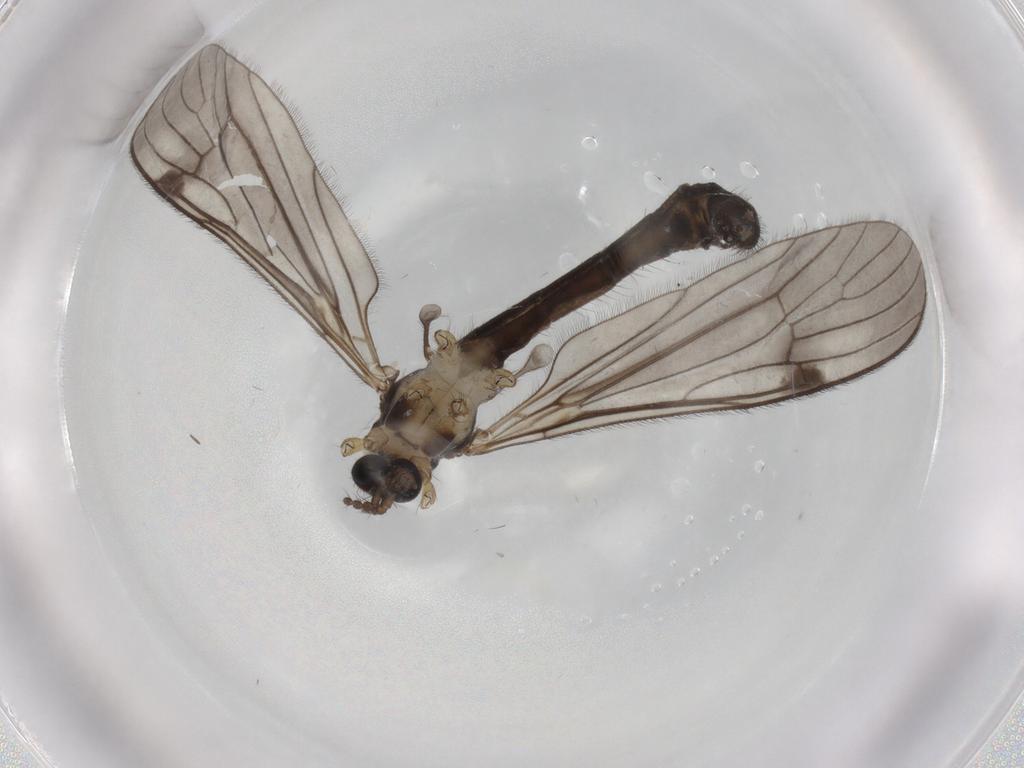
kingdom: Animalia
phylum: Arthropoda
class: Insecta
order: Diptera
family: Limoniidae
